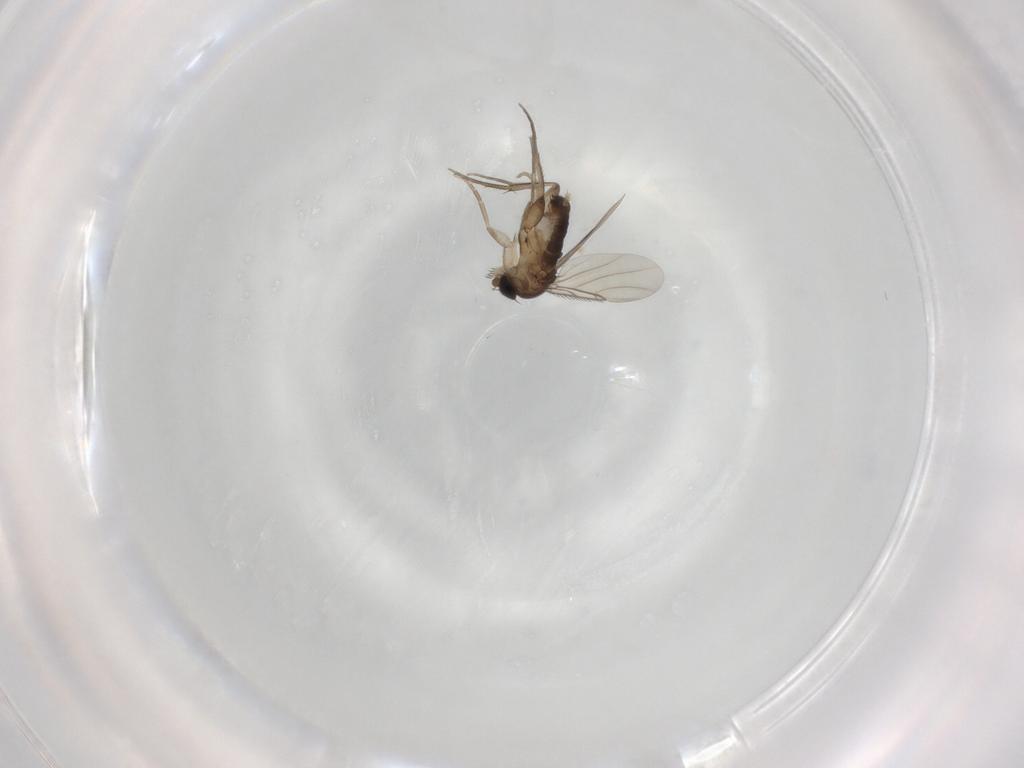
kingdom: Animalia
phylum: Arthropoda
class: Insecta
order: Diptera
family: Phoridae
